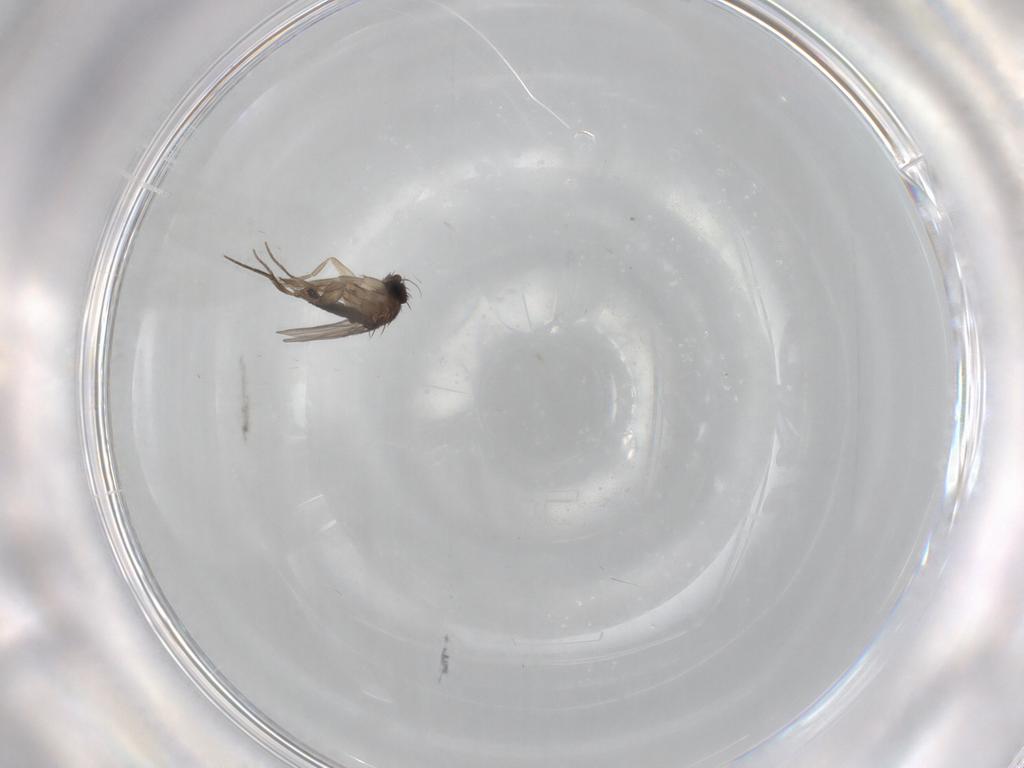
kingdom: Animalia
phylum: Arthropoda
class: Insecta
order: Diptera
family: Phoridae
